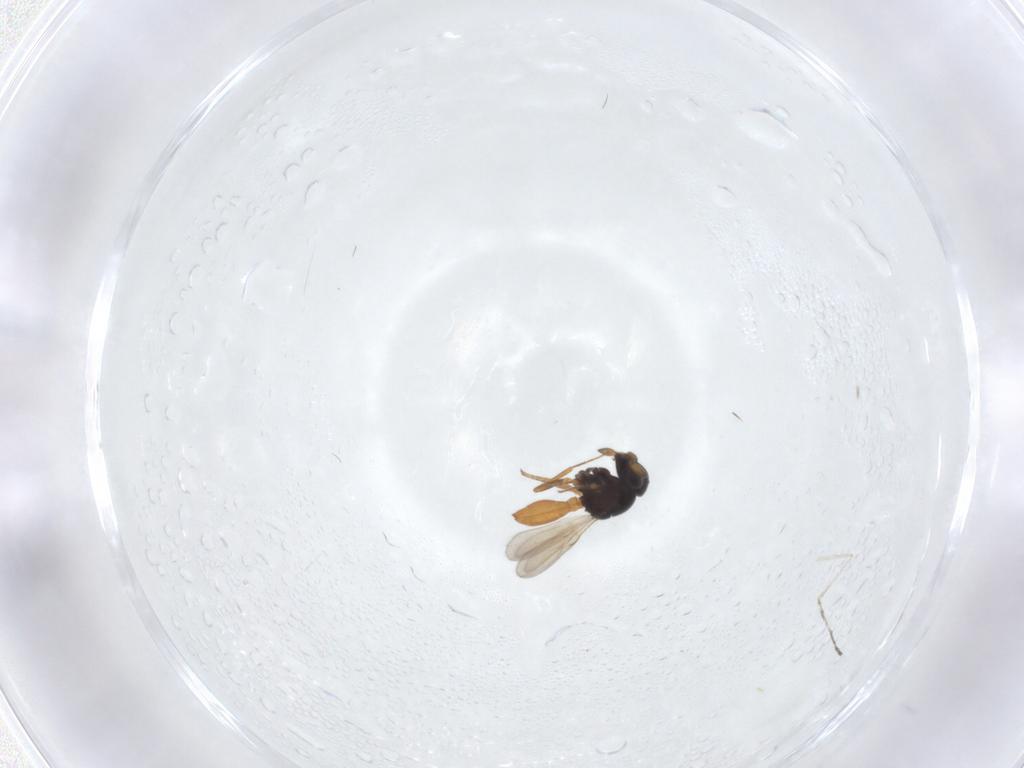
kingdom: Animalia
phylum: Arthropoda
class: Insecta
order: Hymenoptera
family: Scelionidae
